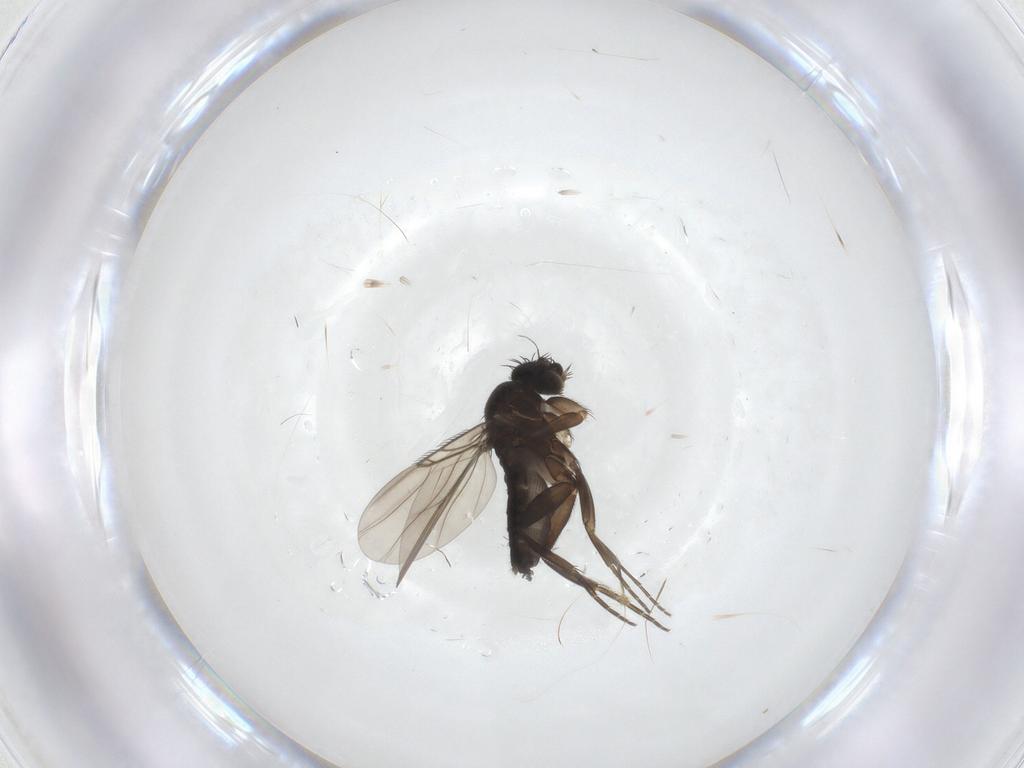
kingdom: Animalia
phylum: Arthropoda
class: Insecta
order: Diptera
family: Phoridae
